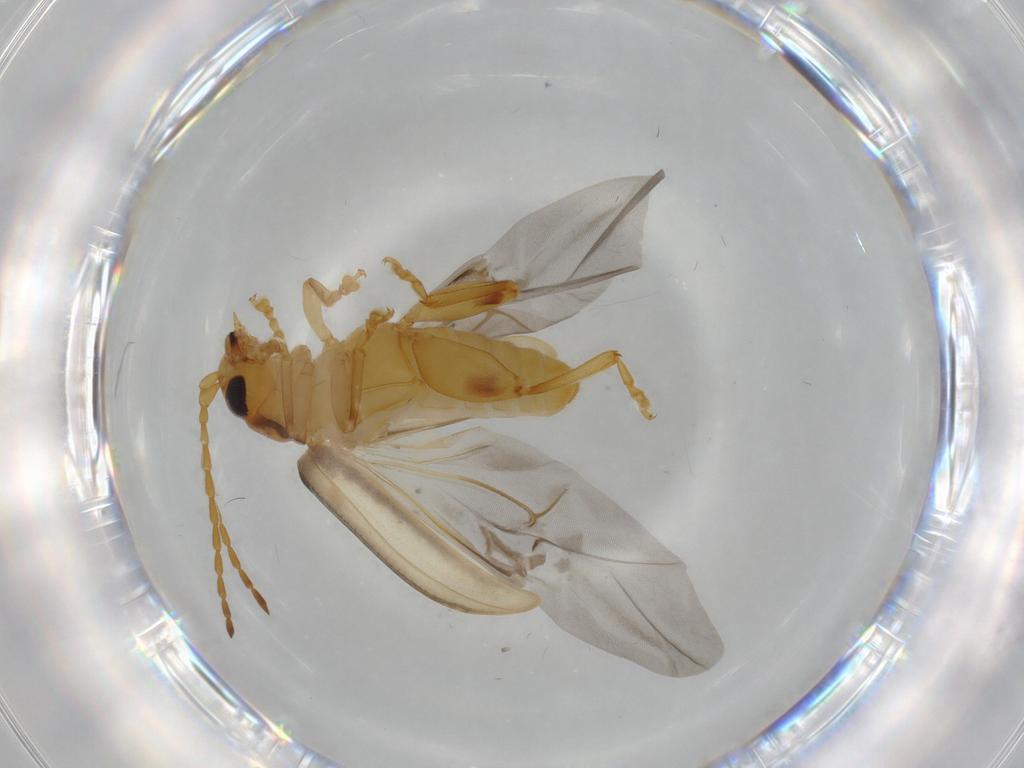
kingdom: Animalia
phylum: Arthropoda
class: Insecta
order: Coleoptera
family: Chrysomelidae
